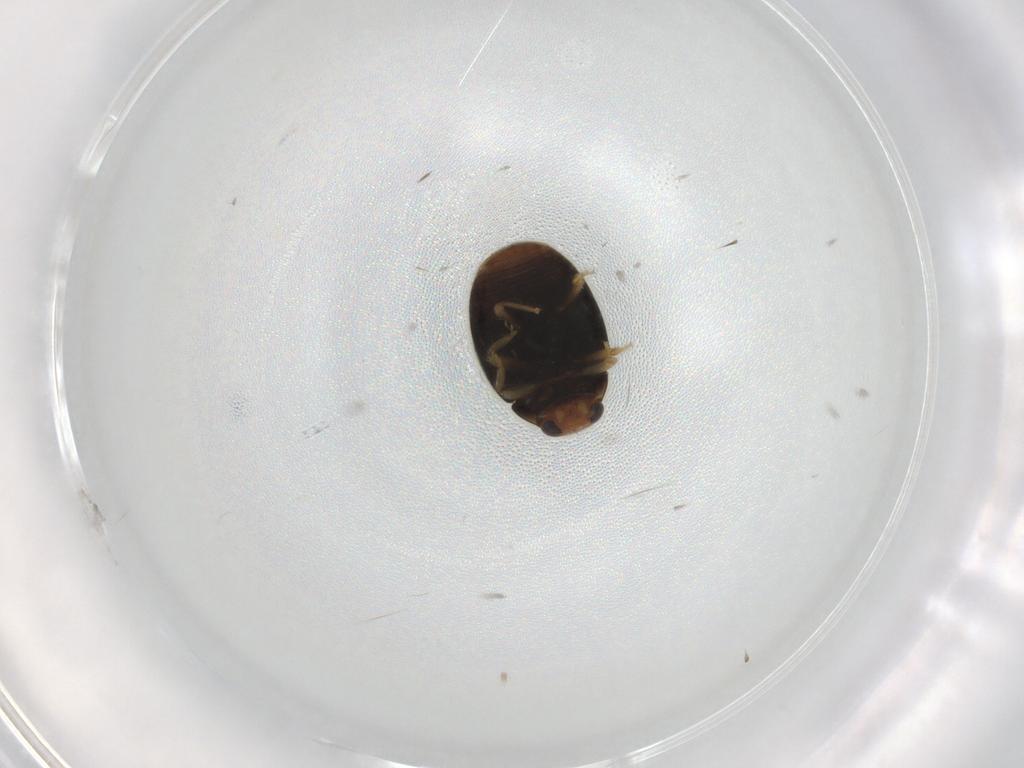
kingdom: Animalia
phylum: Arthropoda
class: Insecta
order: Coleoptera
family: Coccinellidae
